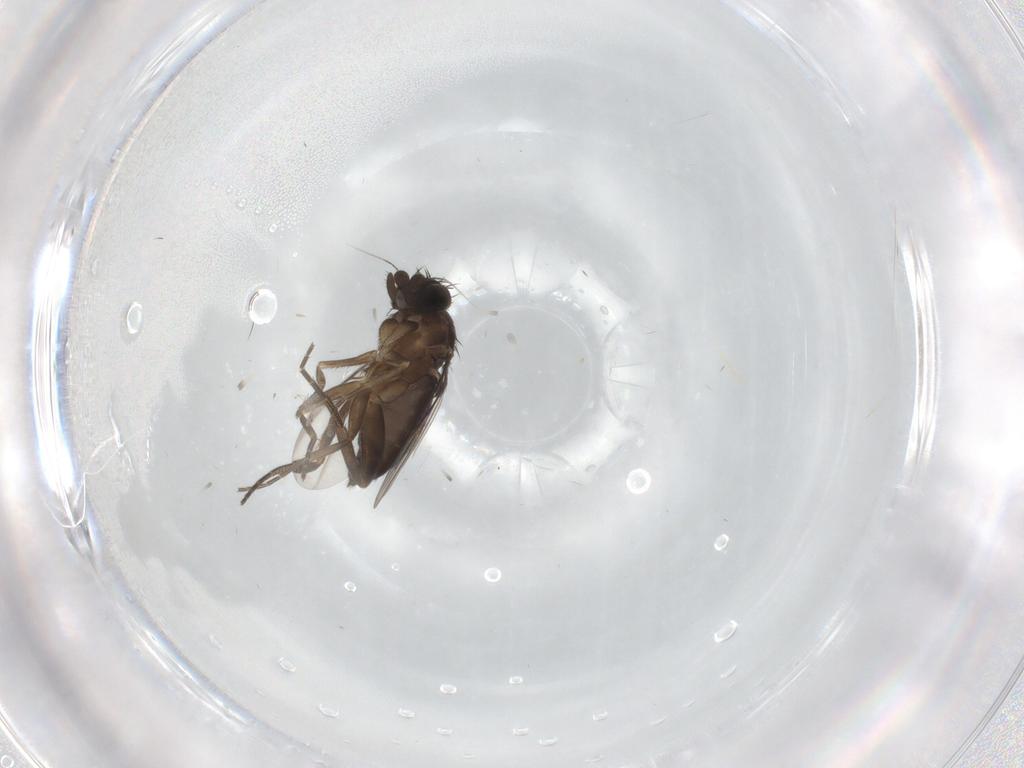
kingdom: Animalia
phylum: Arthropoda
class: Insecta
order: Diptera
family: Phoridae
